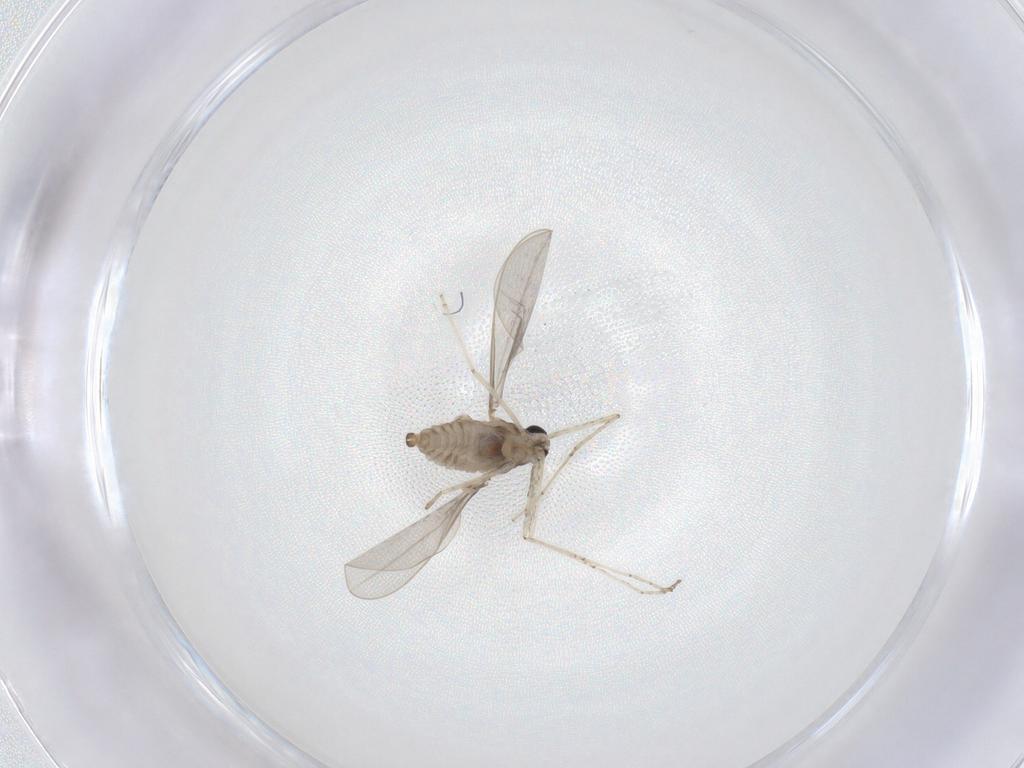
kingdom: Animalia
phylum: Arthropoda
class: Insecta
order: Diptera
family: Cecidomyiidae
